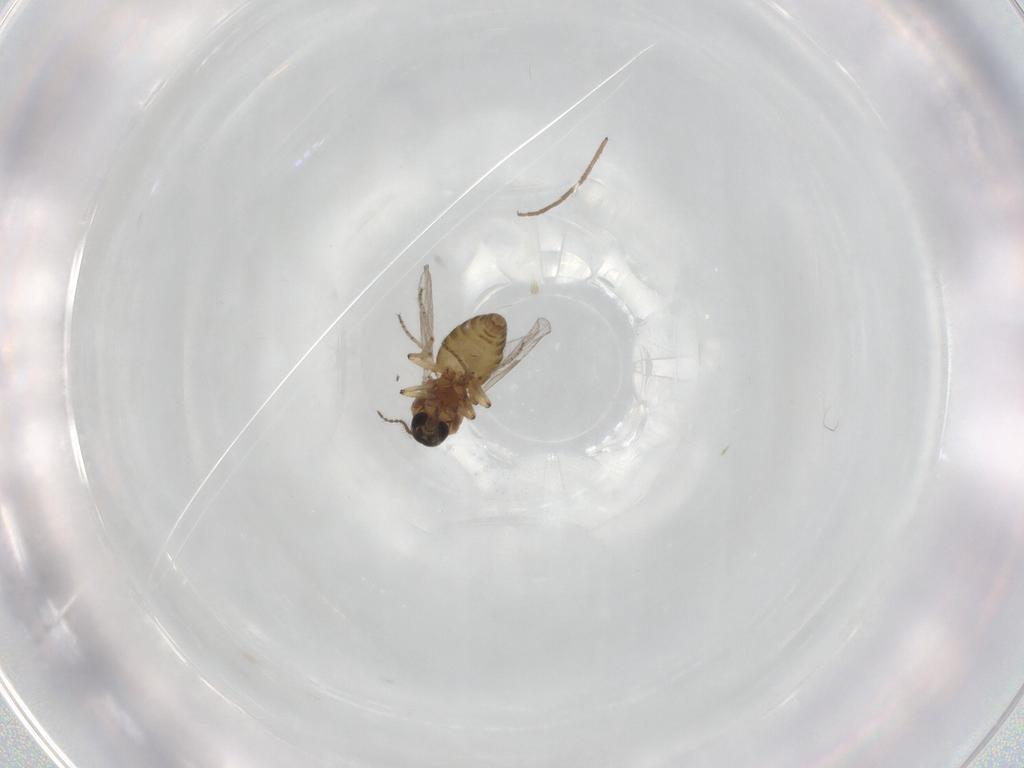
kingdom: Animalia
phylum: Arthropoda
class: Insecta
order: Diptera
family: Ceratopogonidae
